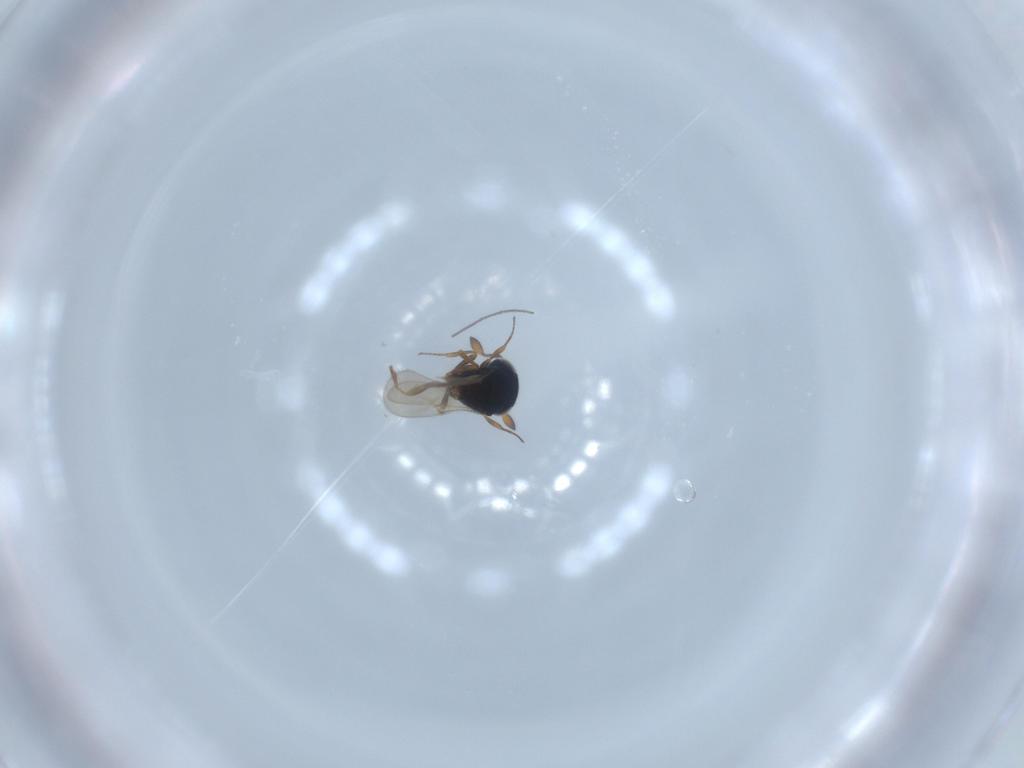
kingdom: Animalia
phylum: Arthropoda
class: Insecta
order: Hymenoptera
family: Scelionidae
